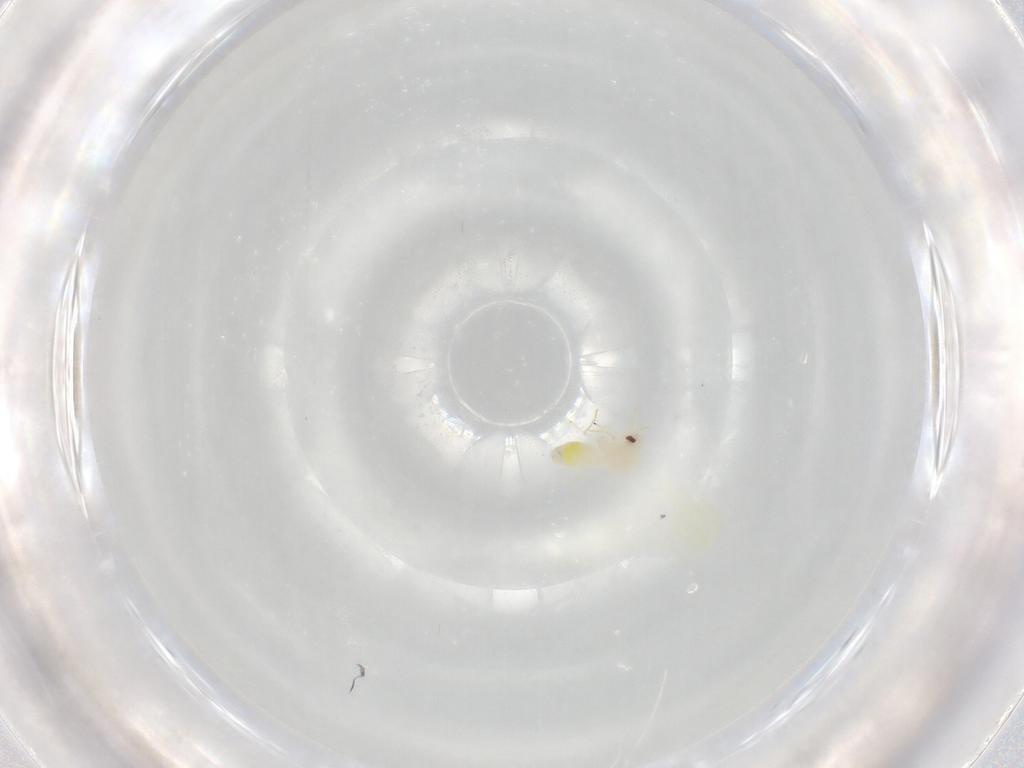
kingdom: Animalia
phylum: Arthropoda
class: Insecta
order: Hemiptera
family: Aleyrodidae
